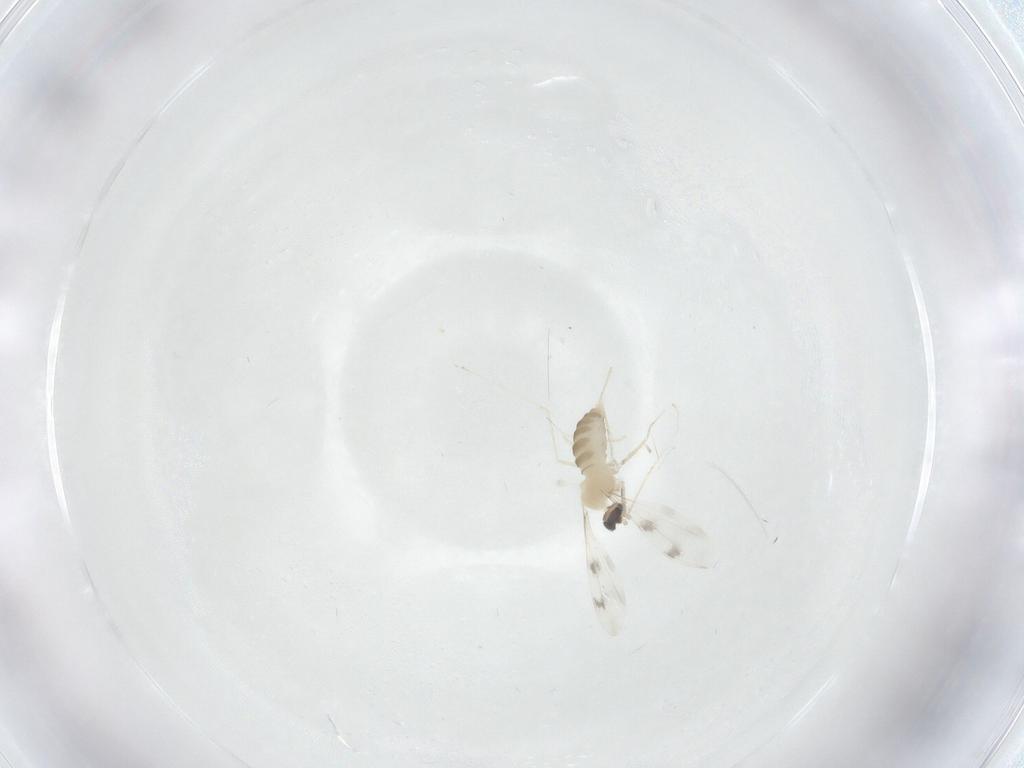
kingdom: Animalia
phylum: Arthropoda
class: Insecta
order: Diptera
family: Cecidomyiidae
